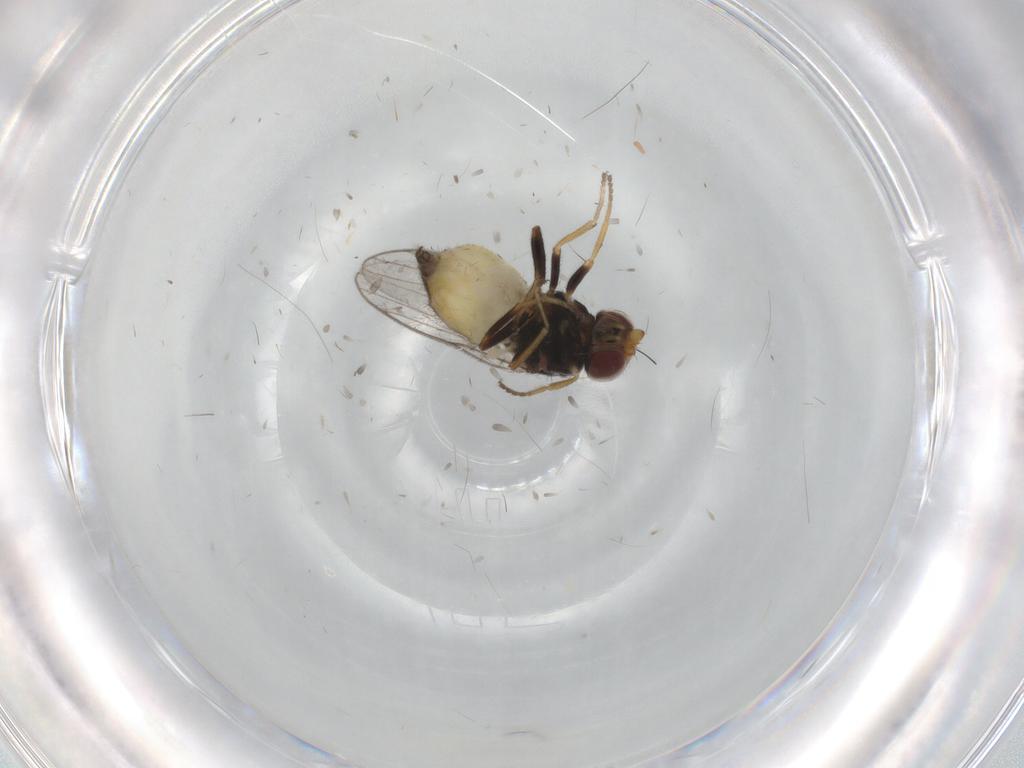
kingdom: Animalia
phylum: Arthropoda
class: Insecta
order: Diptera
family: Chloropidae
